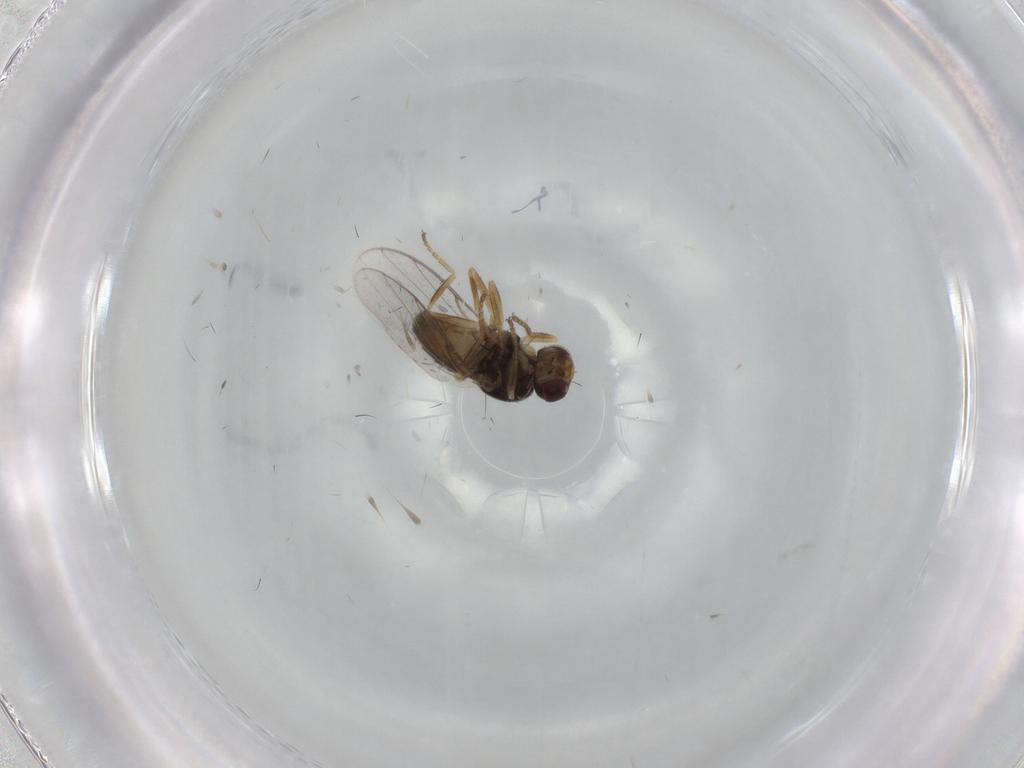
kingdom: Animalia
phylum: Arthropoda
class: Insecta
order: Diptera
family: Chloropidae
